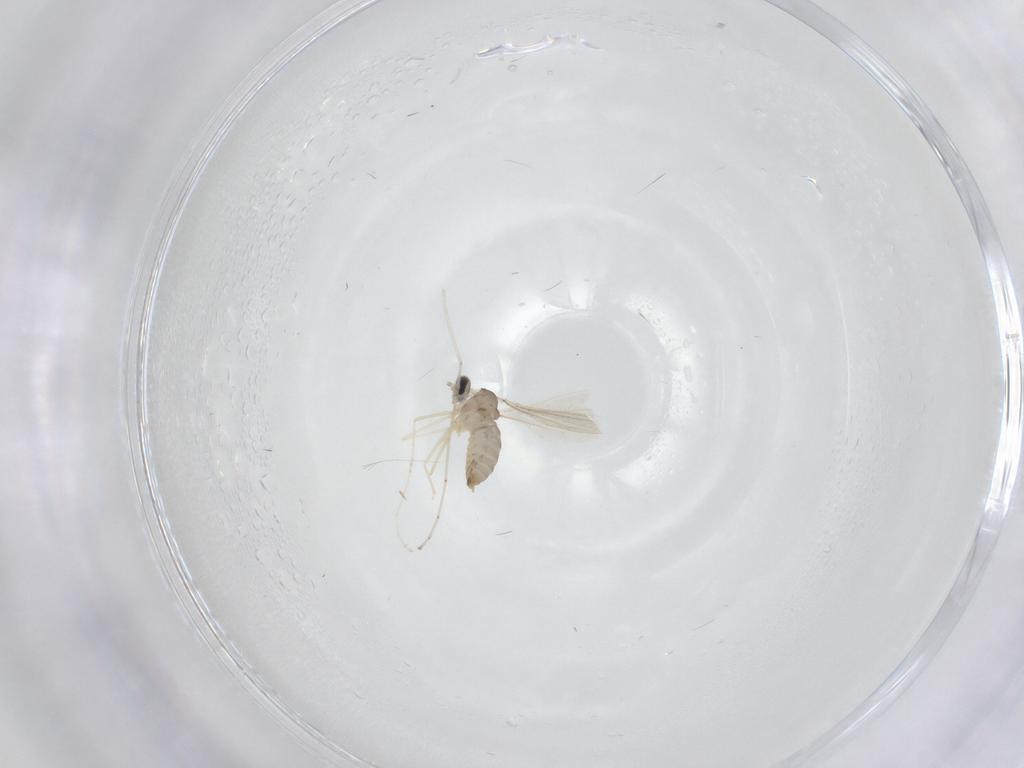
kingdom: Animalia
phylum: Arthropoda
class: Insecta
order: Diptera
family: Cecidomyiidae
